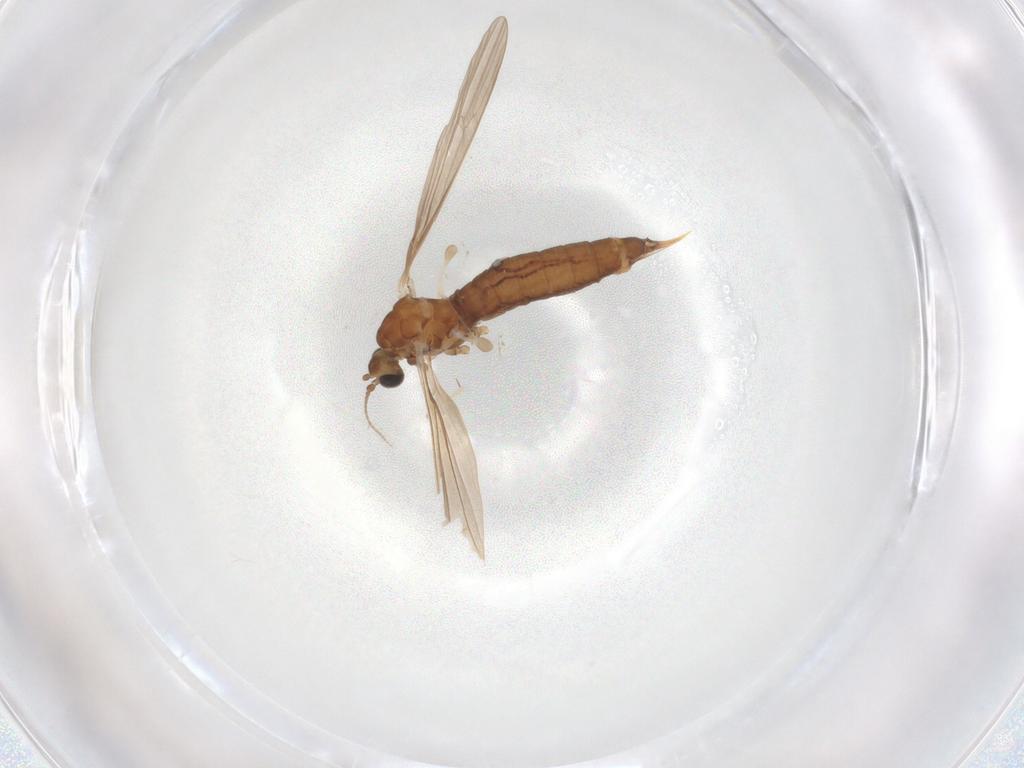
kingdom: Animalia
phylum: Arthropoda
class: Insecta
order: Diptera
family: Limoniidae
